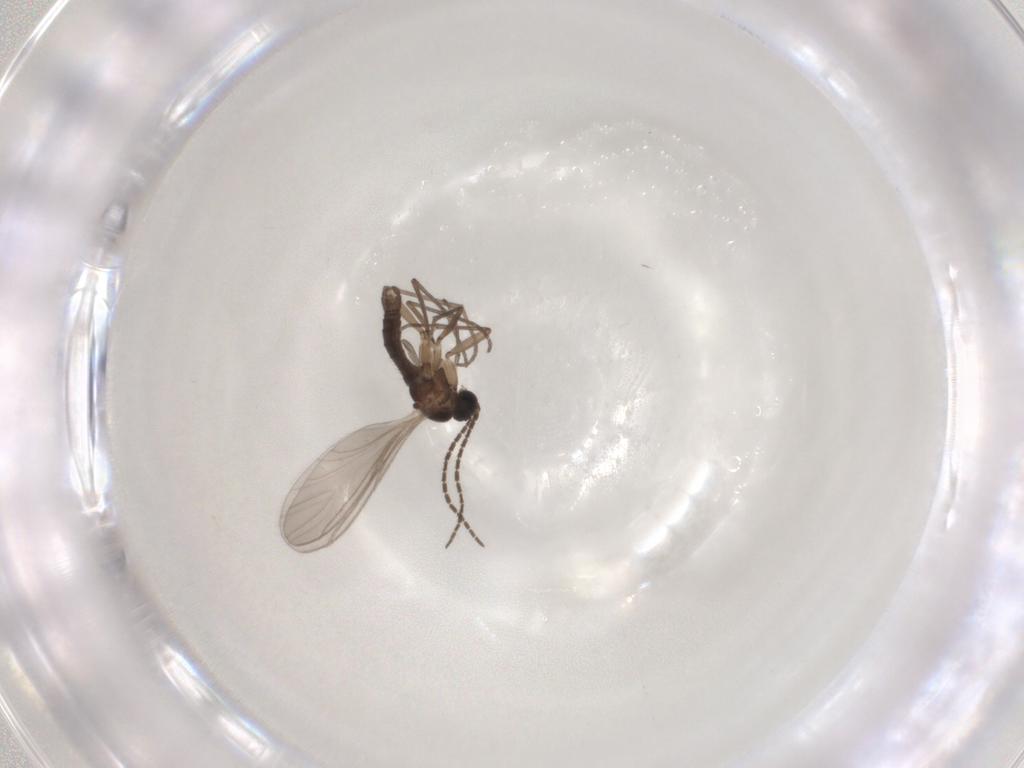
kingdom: Animalia
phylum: Arthropoda
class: Insecta
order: Diptera
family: Sciaridae
